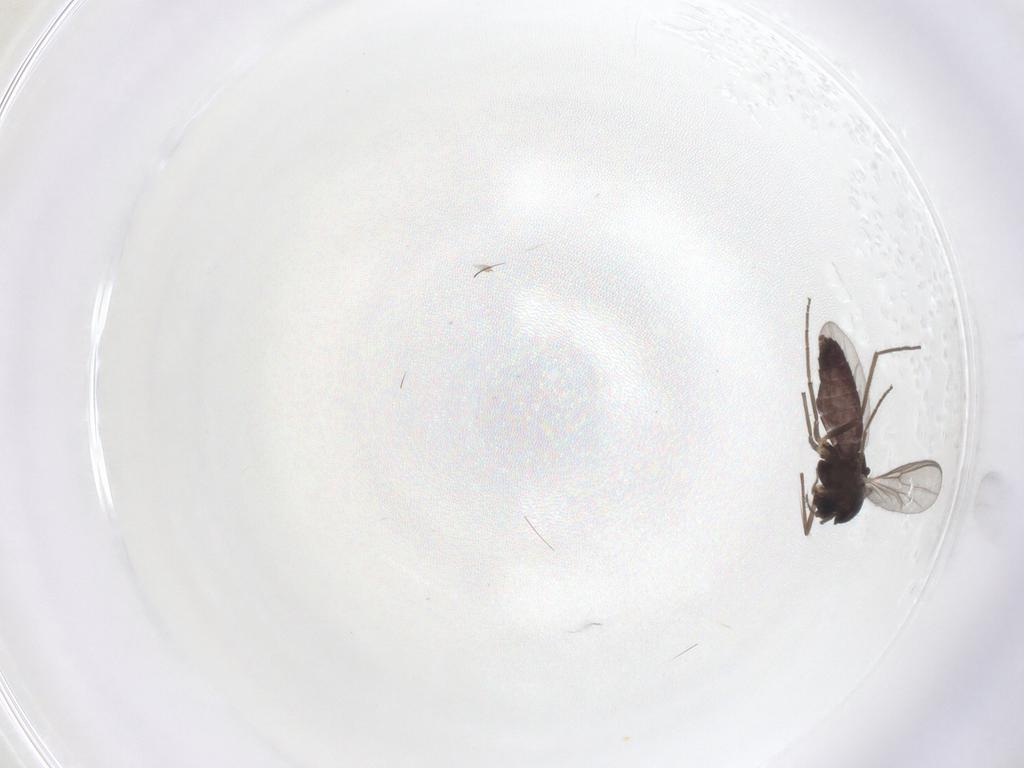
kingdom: Animalia
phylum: Arthropoda
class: Insecta
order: Diptera
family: Chironomidae
